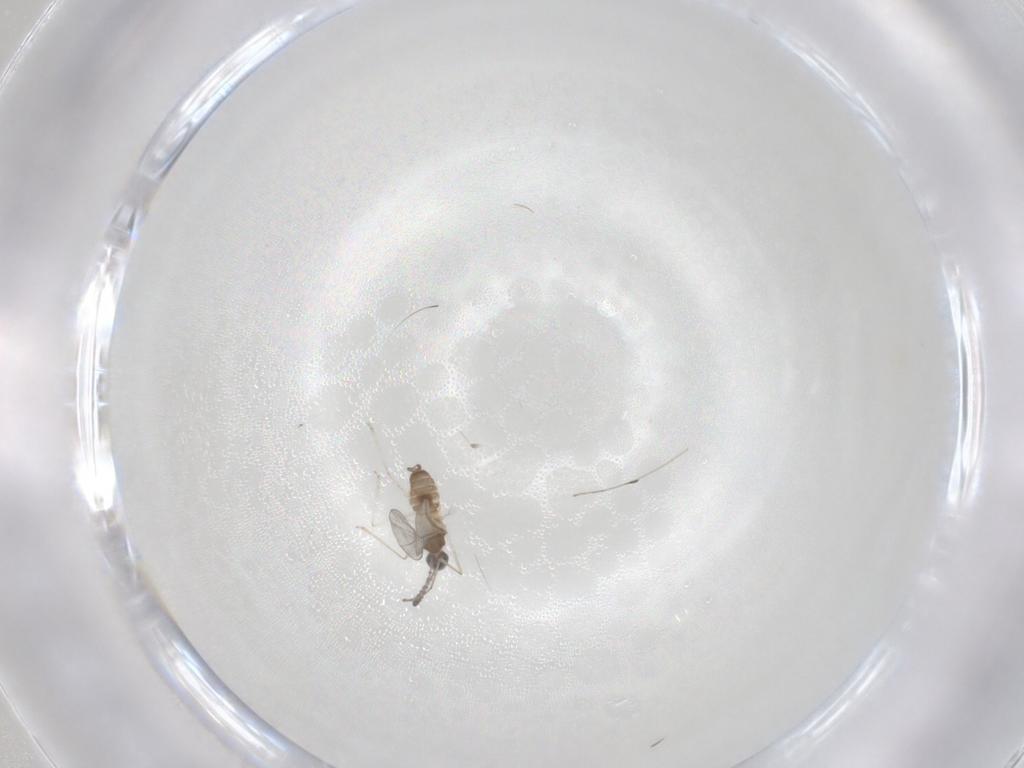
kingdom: Animalia
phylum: Arthropoda
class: Insecta
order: Diptera
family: Cecidomyiidae
